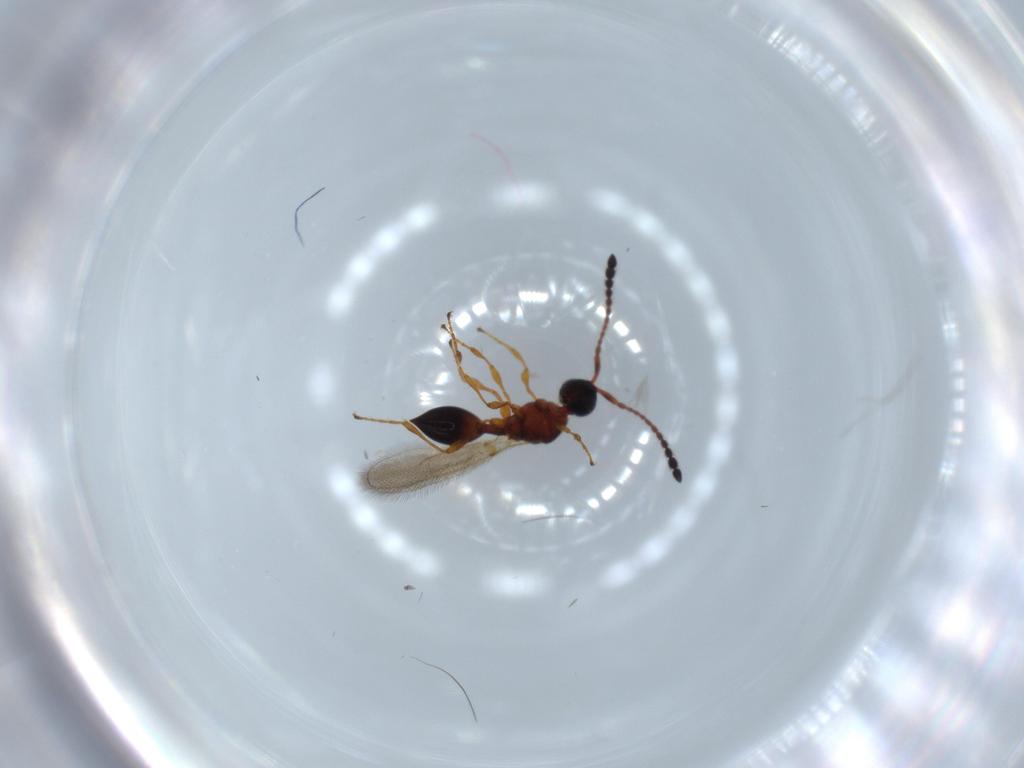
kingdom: Animalia
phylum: Arthropoda
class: Insecta
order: Hymenoptera
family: Diapriidae
